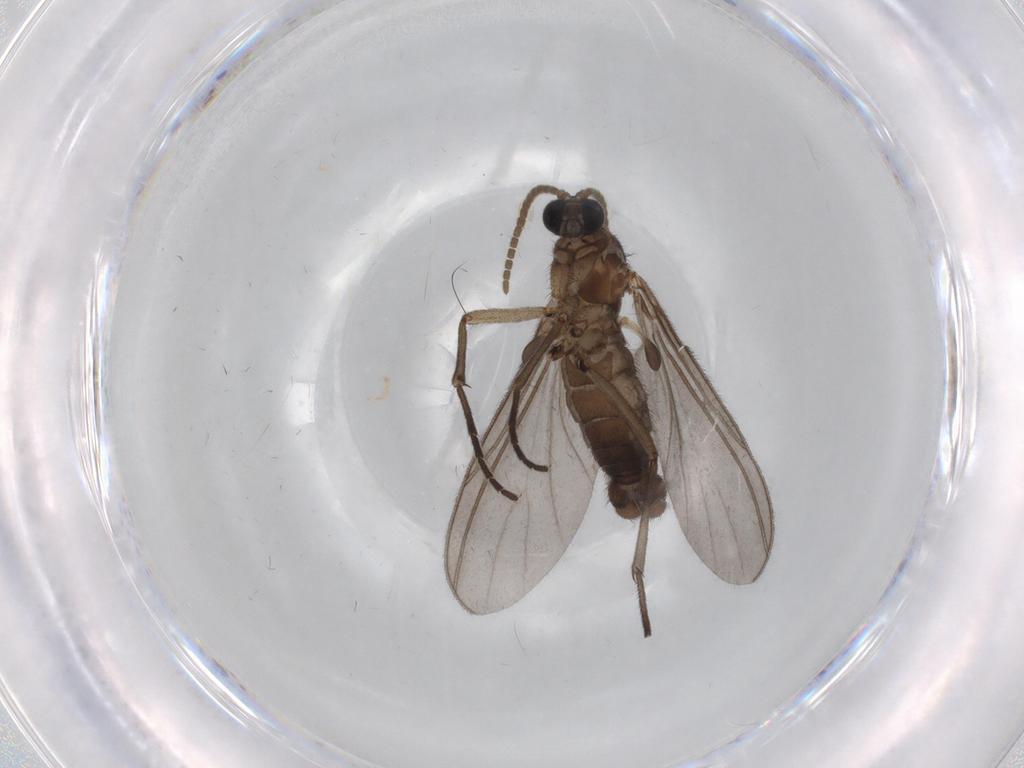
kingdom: Animalia
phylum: Arthropoda
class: Insecta
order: Diptera
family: Sphaeroceridae
